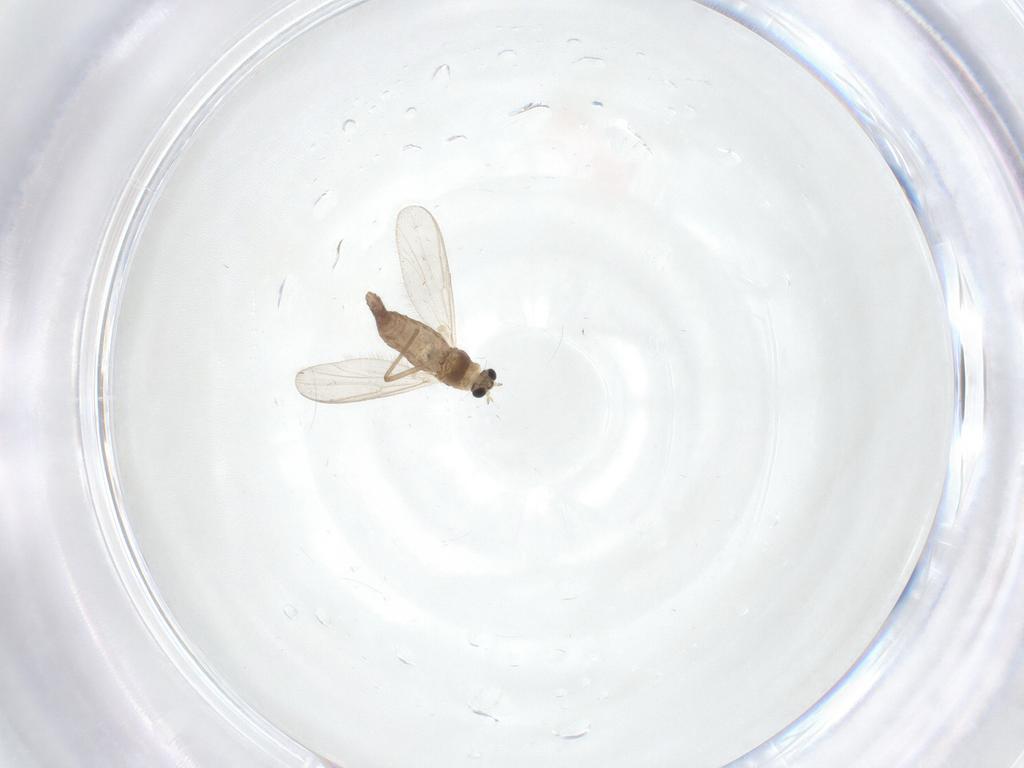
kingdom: Animalia
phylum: Arthropoda
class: Insecta
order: Diptera
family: Chironomidae
